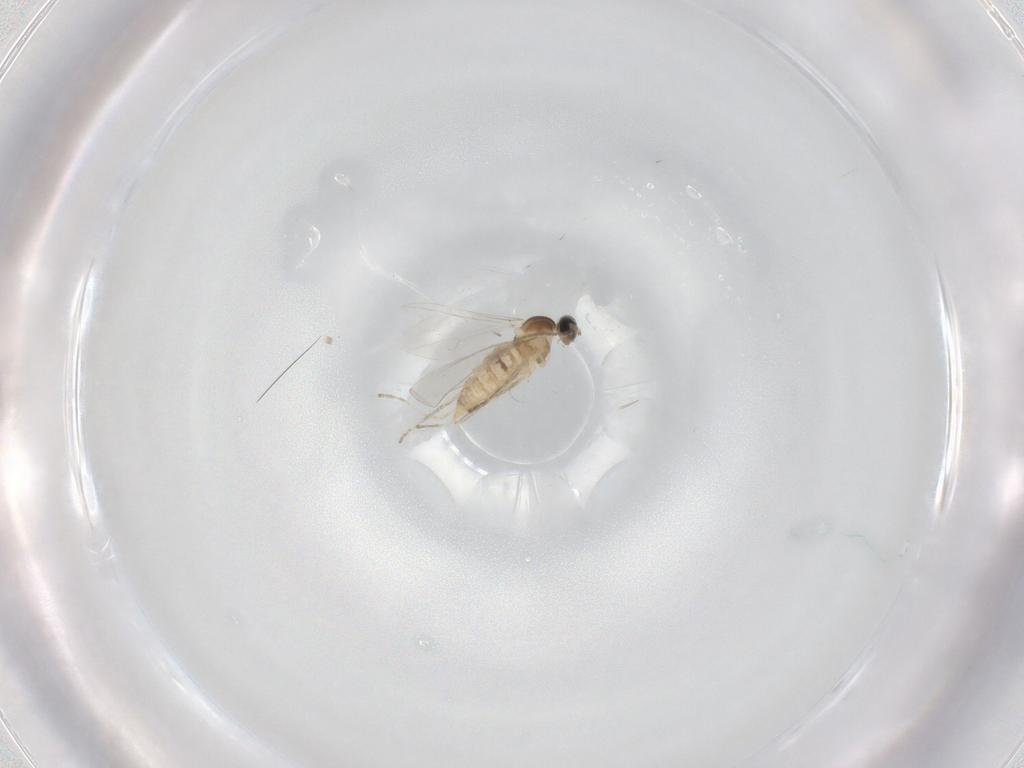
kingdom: Animalia
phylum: Arthropoda
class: Insecta
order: Diptera
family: Cecidomyiidae
